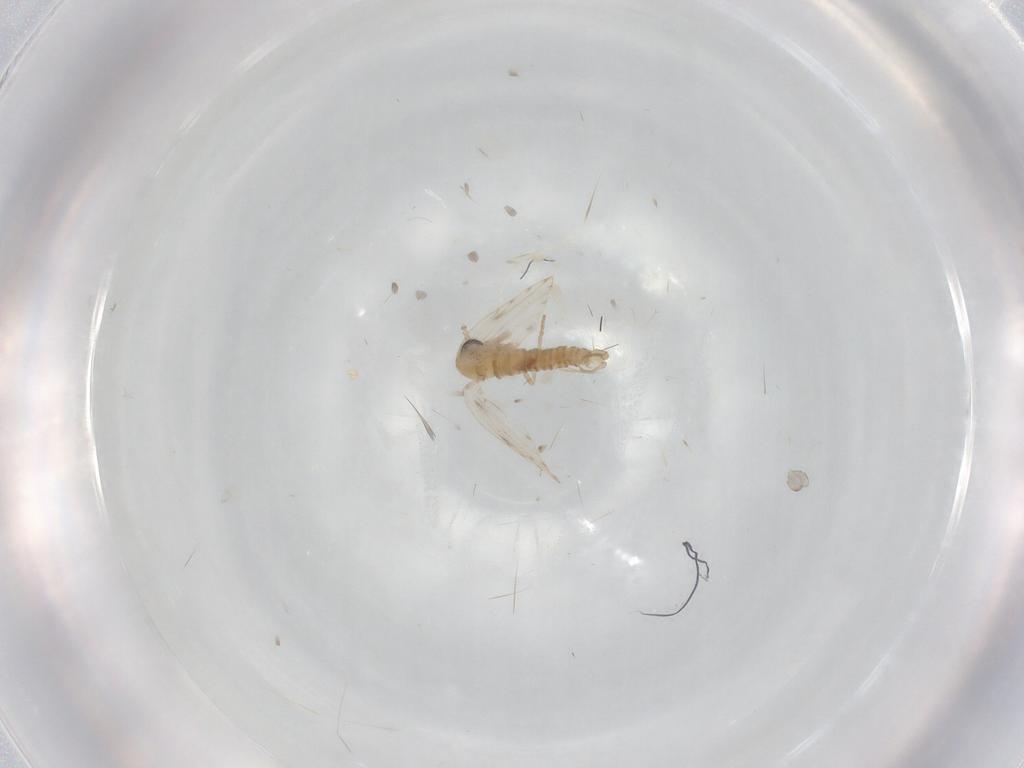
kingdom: Animalia
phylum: Arthropoda
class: Insecta
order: Diptera
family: Psychodidae
